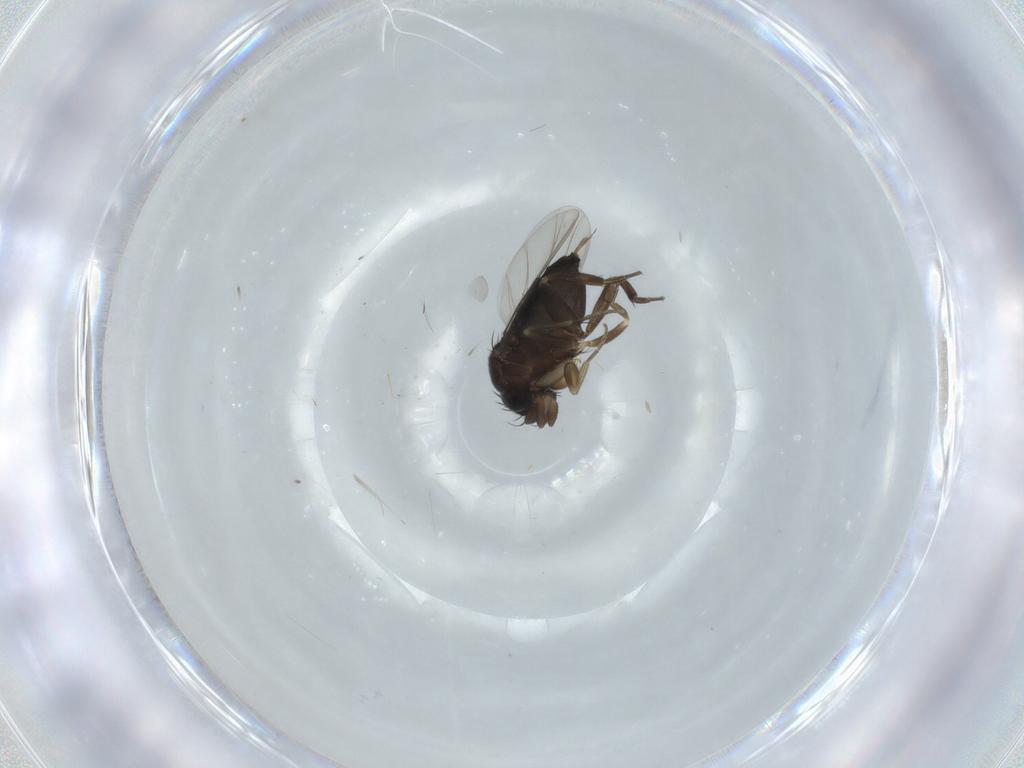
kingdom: Animalia
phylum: Arthropoda
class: Insecta
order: Diptera
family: Phoridae
